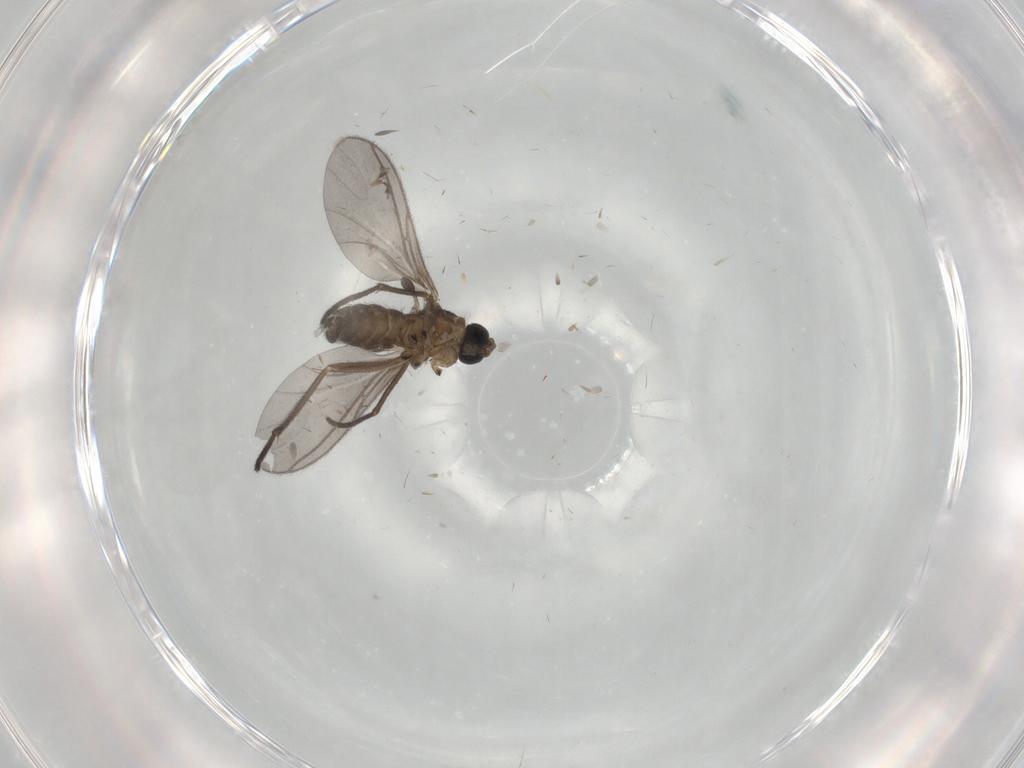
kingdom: Animalia
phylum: Arthropoda
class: Insecta
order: Diptera
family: Sciaridae
